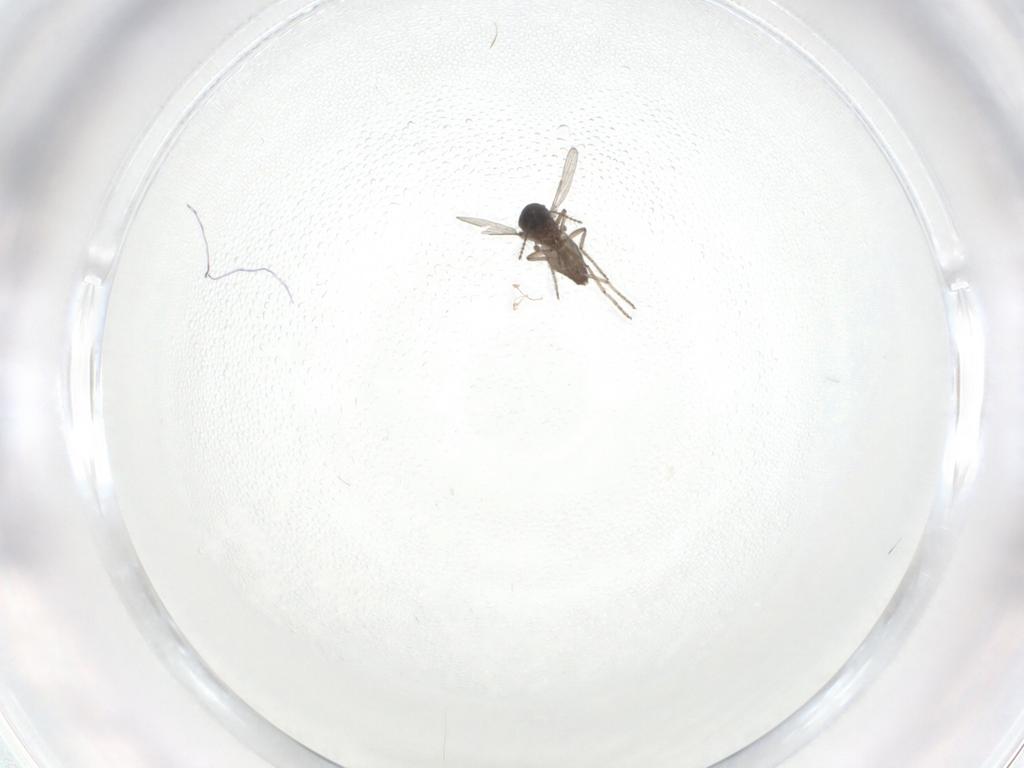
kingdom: Animalia
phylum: Arthropoda
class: Insecta
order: Diptera
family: Ceratopogonidae
